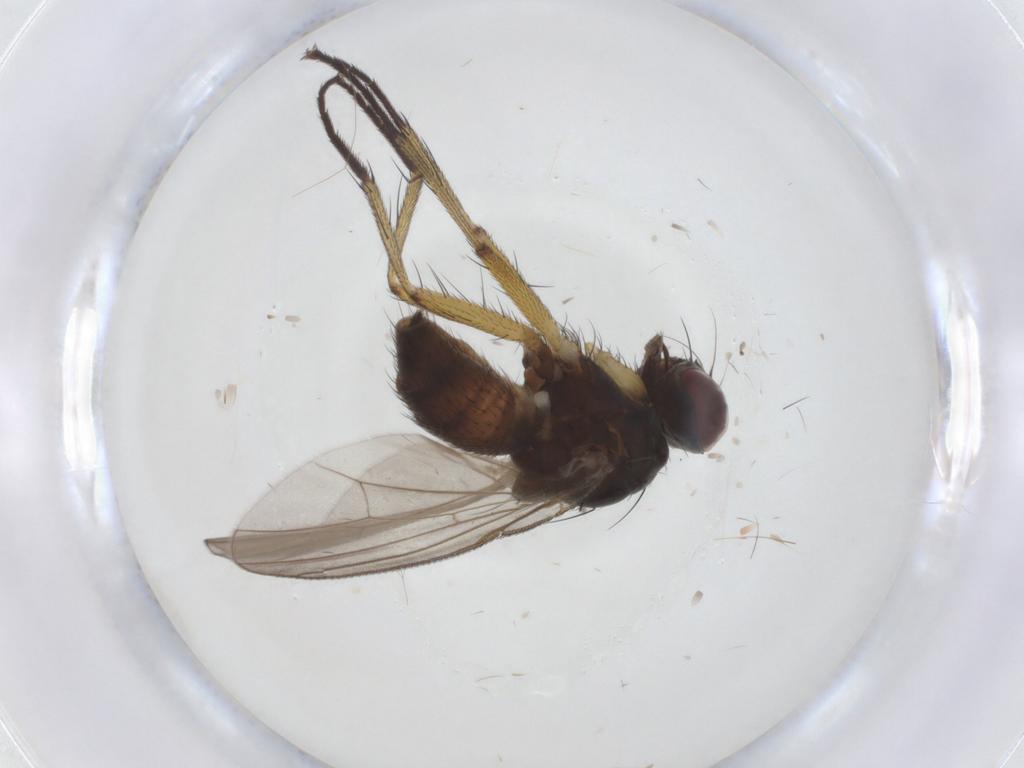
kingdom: Animalia
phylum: Arthropoda
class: Insecta
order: Diptera
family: Muscidae
